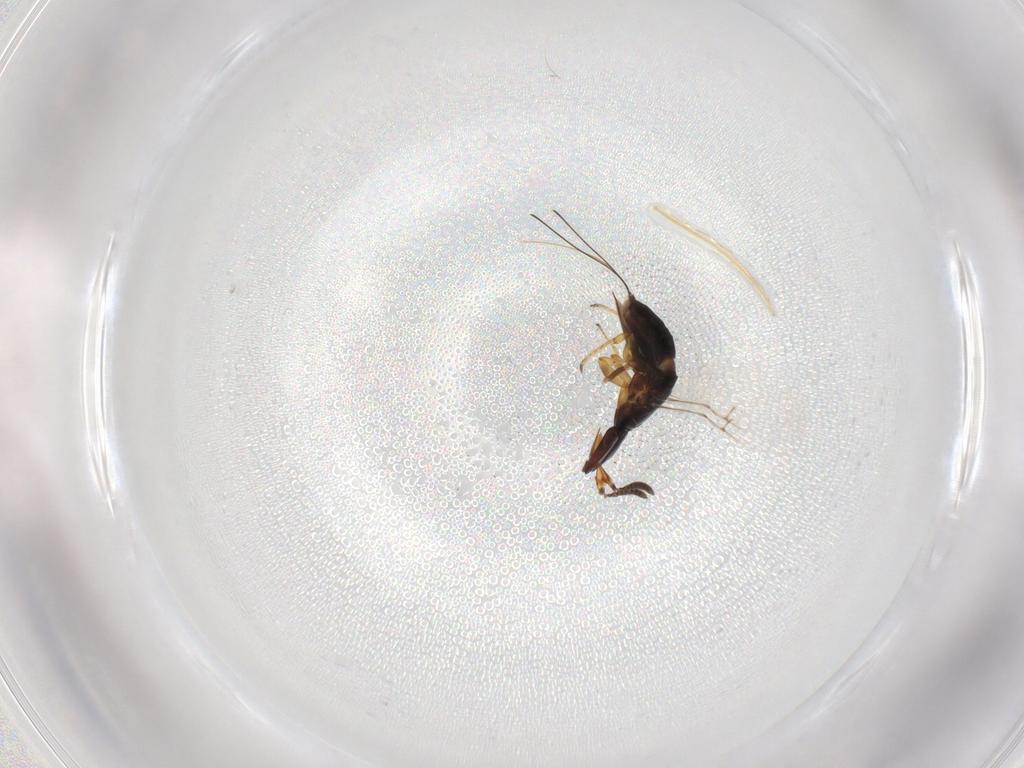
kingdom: Animalia
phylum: Arthropoda
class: Insecta
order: Hymenoptera
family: Agaonidae
